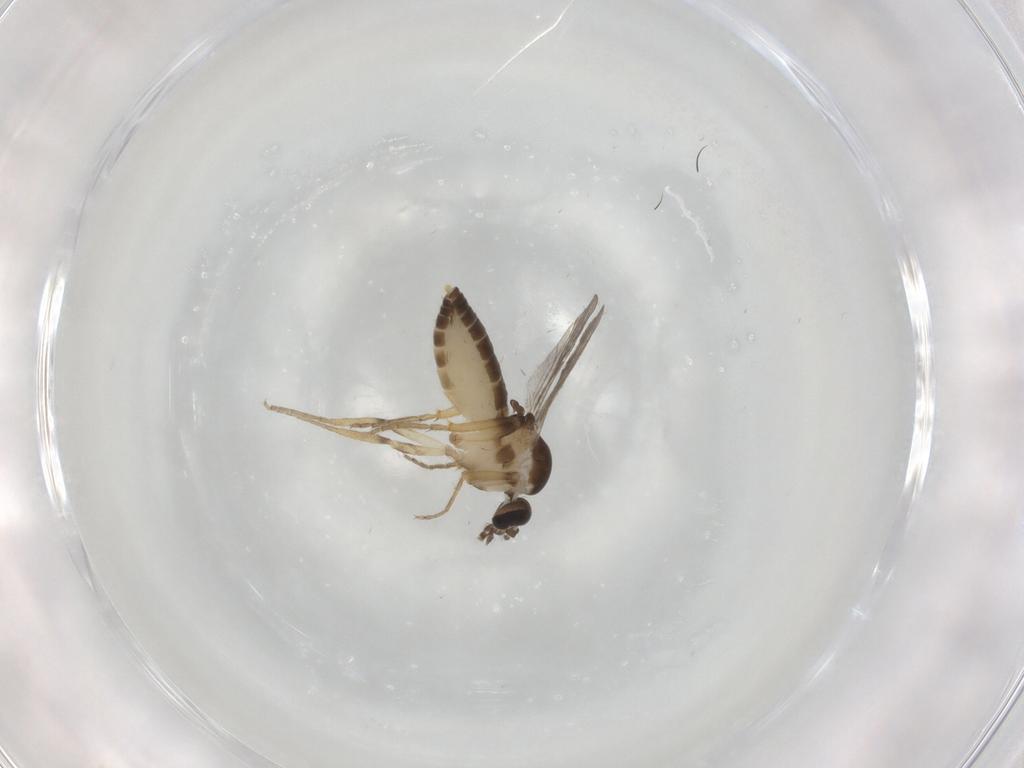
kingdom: Animalia
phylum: Arthropoda
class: Insecta
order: Diptera
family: Ceratopogonidae
